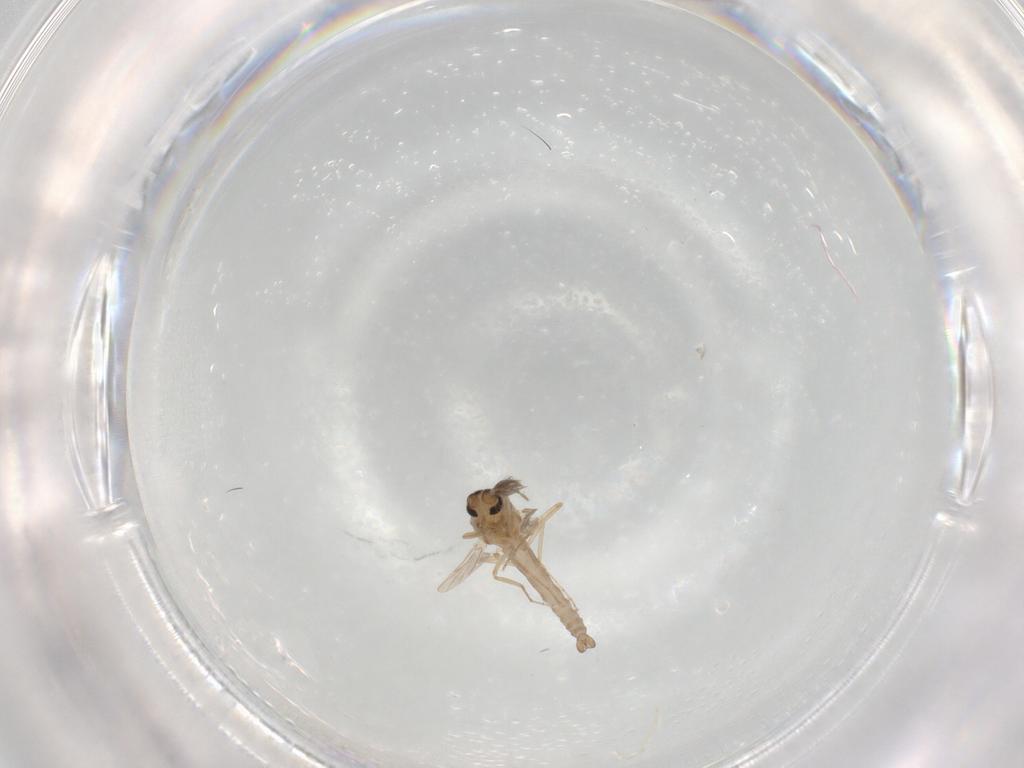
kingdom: Animalia
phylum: Arthropoda
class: Insecta
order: Diptera
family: Ceratopogonidae
